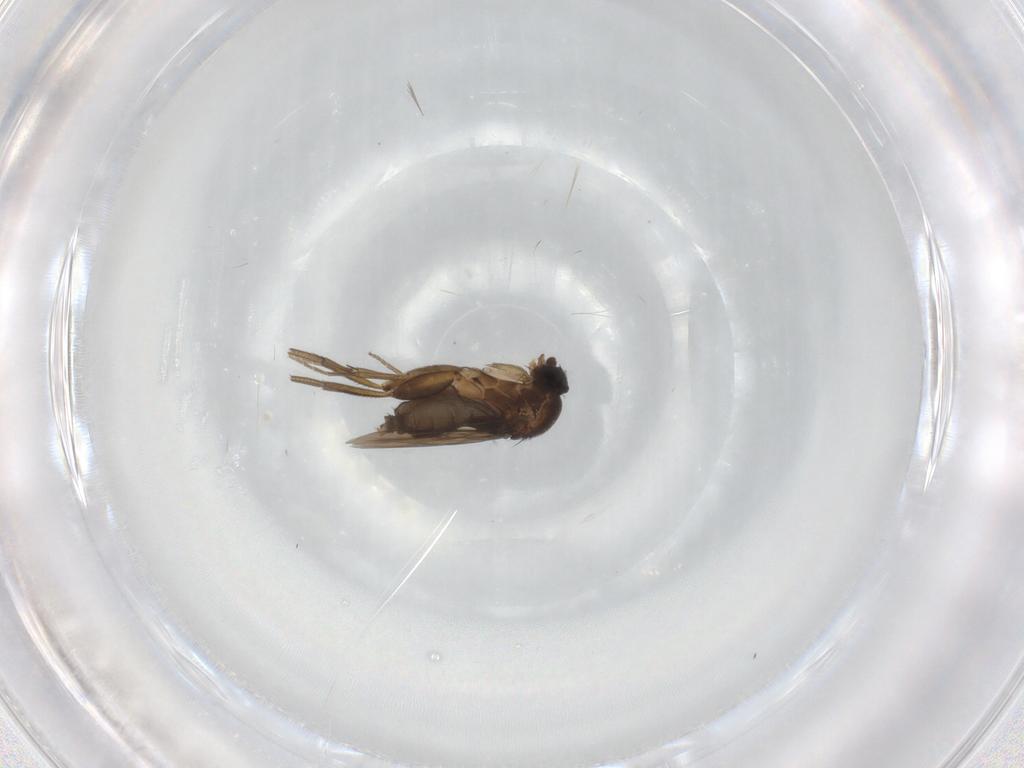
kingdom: Animalia
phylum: Arthropoda
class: Insecta
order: Diptera
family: Phoridae
